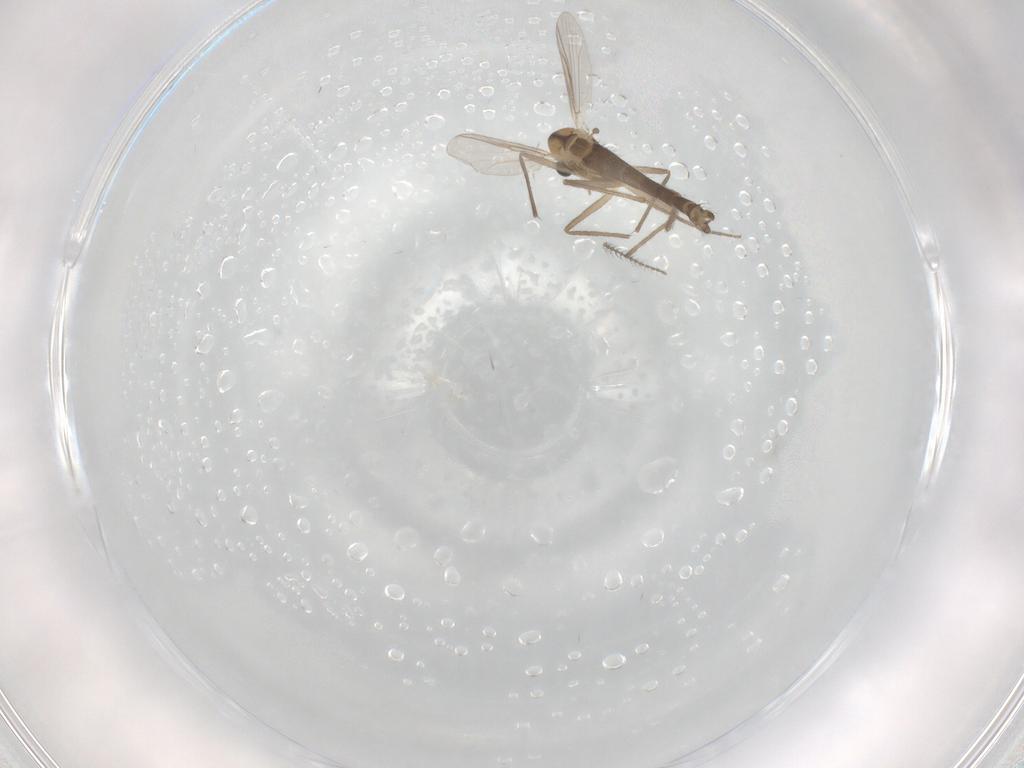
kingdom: Animalia
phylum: Arthropoda
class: Insecta
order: Diptera
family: Chironomidae
